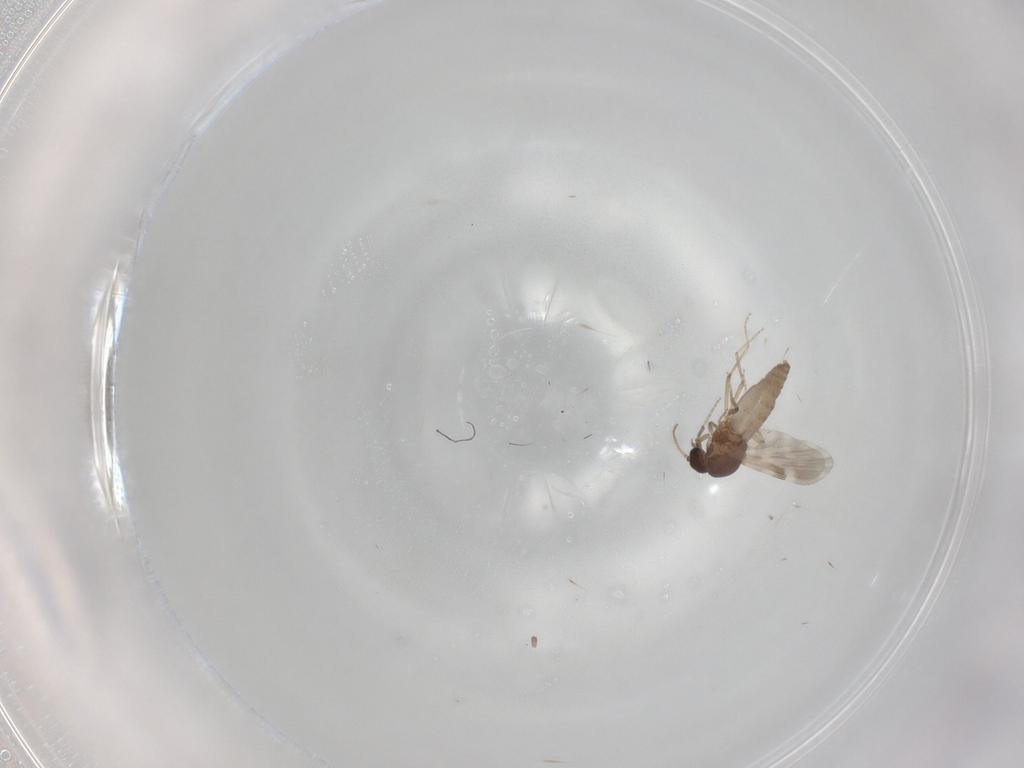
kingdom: Animalia
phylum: Arthropoda
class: Insecta
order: Diptera
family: Ceratopogonidae
